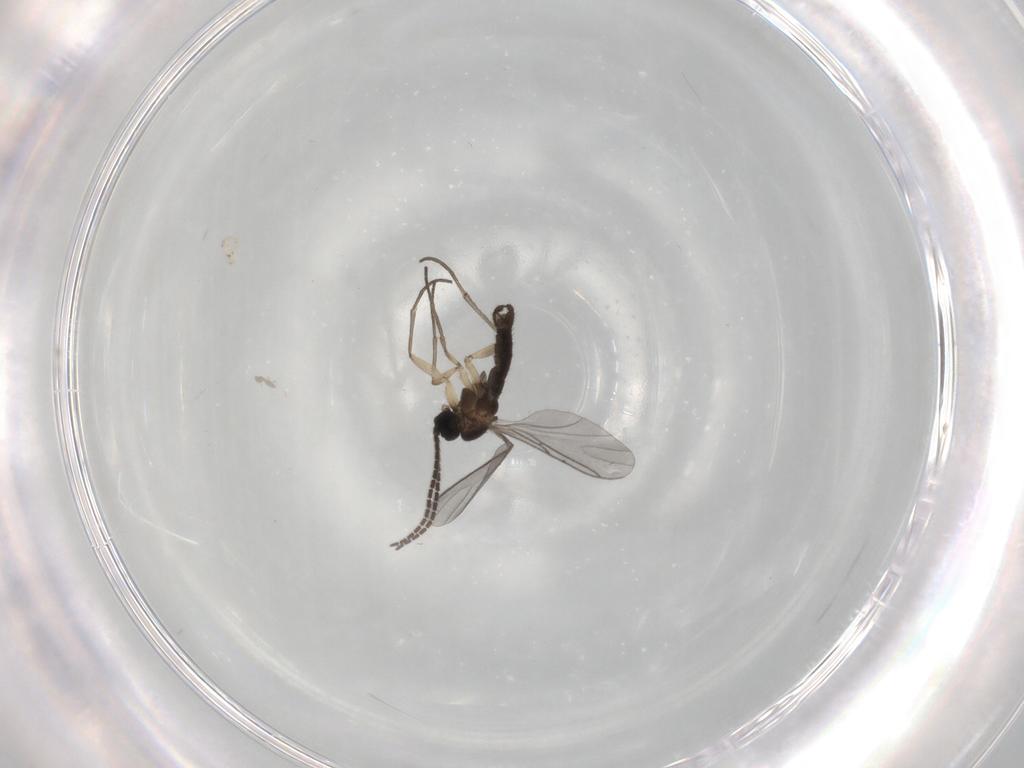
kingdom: Animalia
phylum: Arthropoda
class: Insecta
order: Diptera
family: Sciaridae
